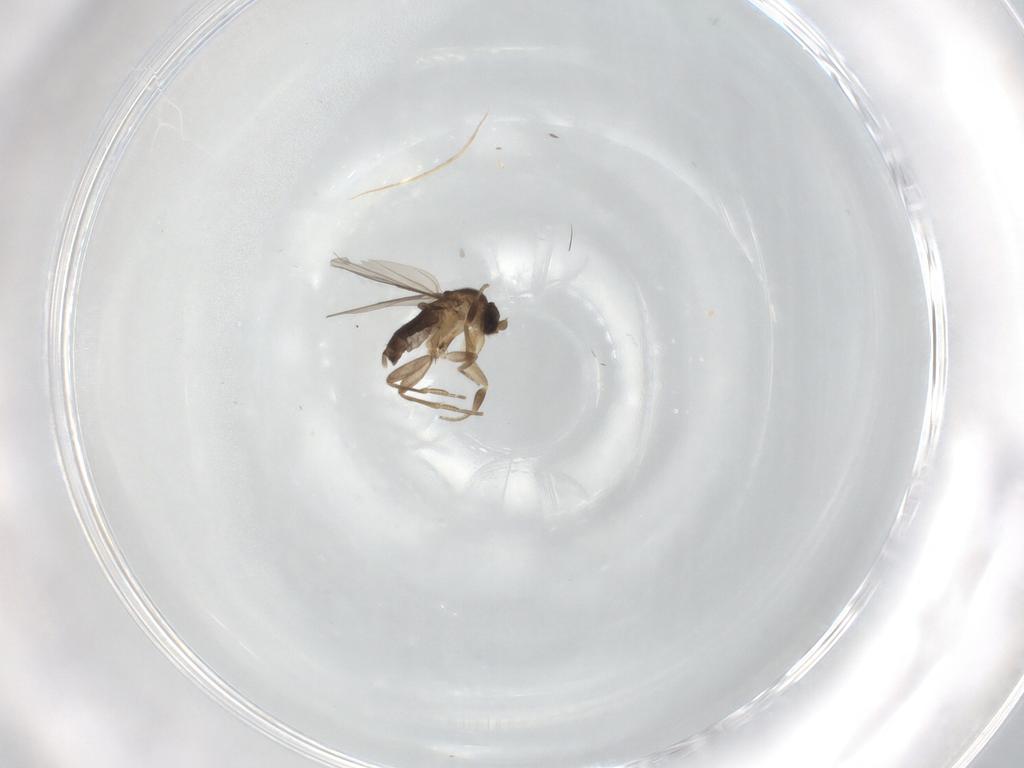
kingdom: Animalia
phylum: Arthropoda
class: Insecta
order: Diptera
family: Phoridae
